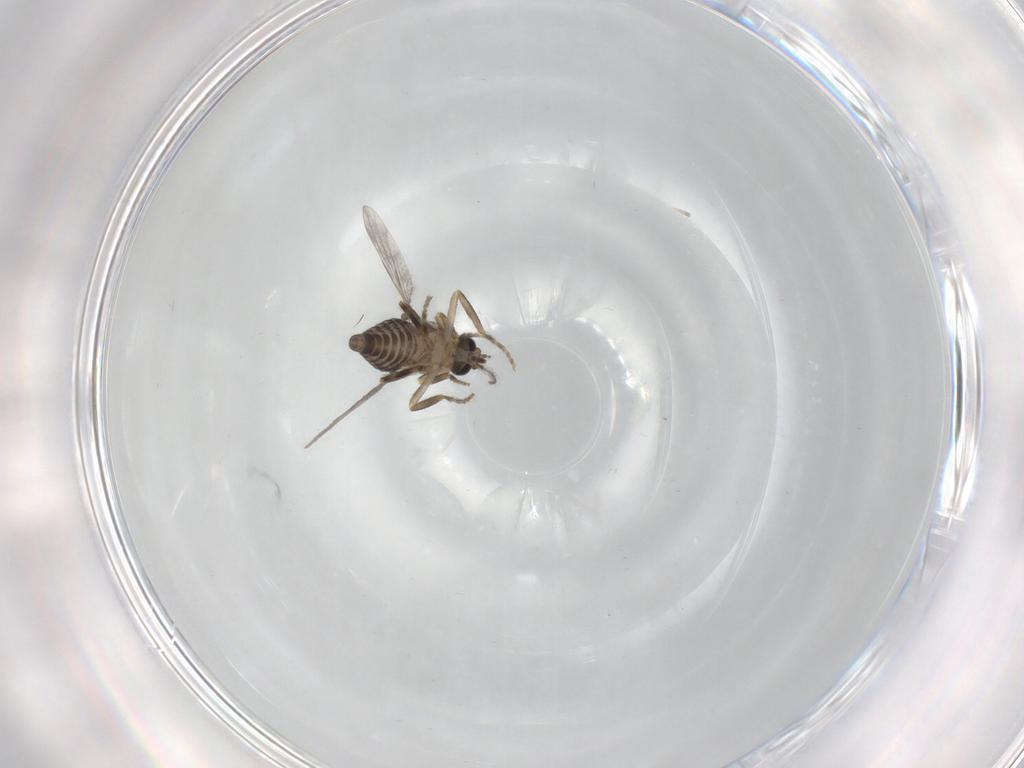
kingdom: Animalia
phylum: Arthropoda
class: Insecta
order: Diptera
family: Ceratopogonidae
